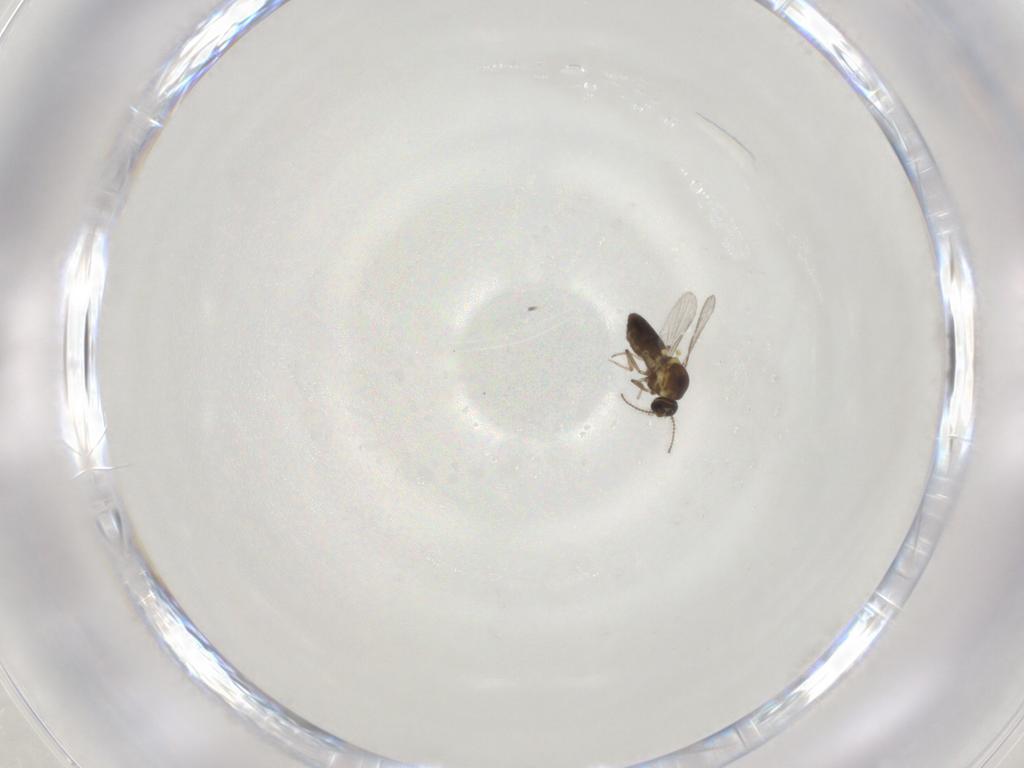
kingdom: Animalia
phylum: Arthropoda
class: Insecta
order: Diptera
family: Ceratopogonidae
